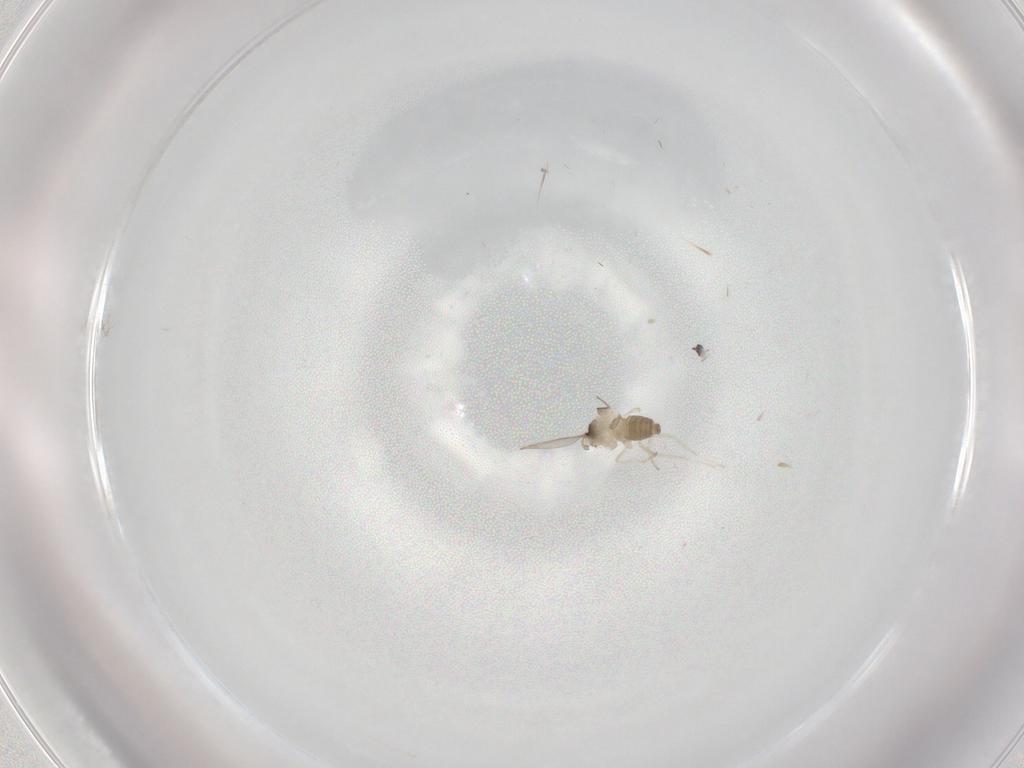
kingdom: Animalia
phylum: Arthropoda
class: Insecta
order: Diptera
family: Cecidomyiidae
